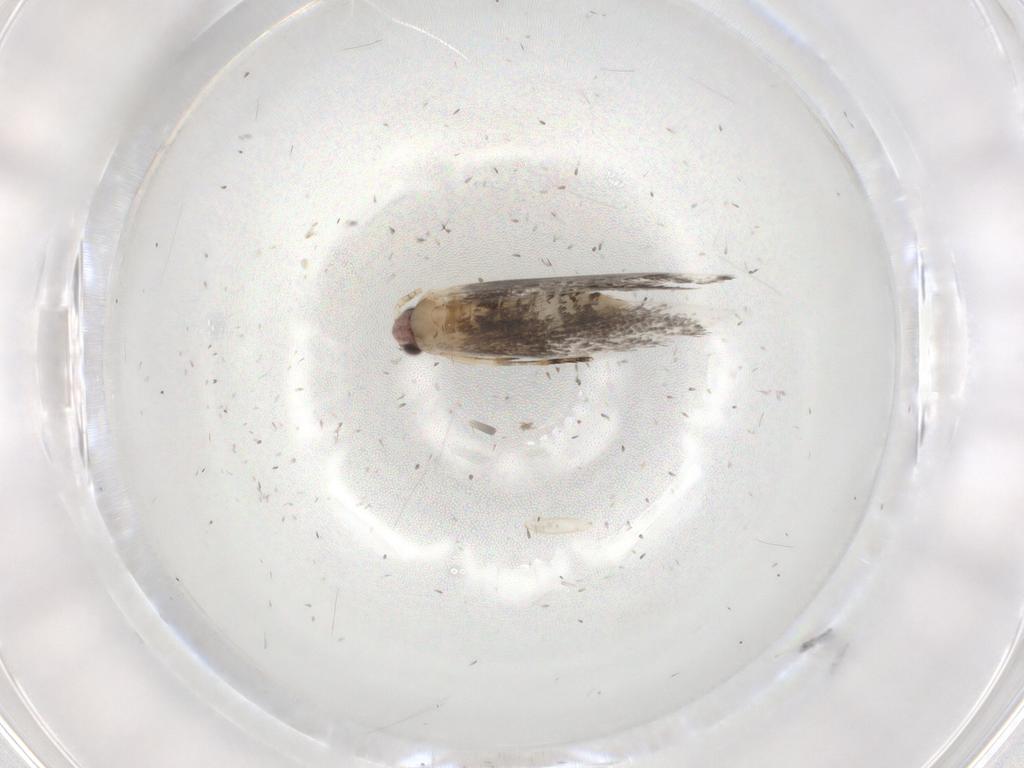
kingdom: Animalia
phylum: Arthropoda
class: Insecta
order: Lepidoptera
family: Tineidae
